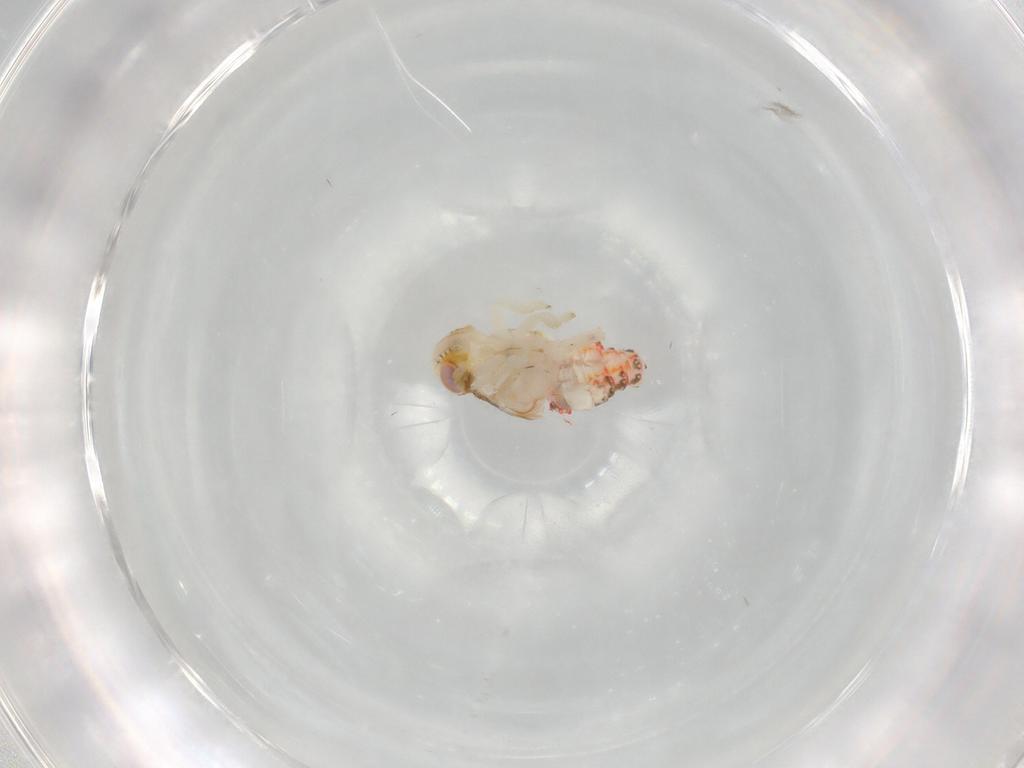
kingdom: Animalia
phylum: Arthropoda
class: Insecta
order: Hemiptera
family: Nogodinidae
